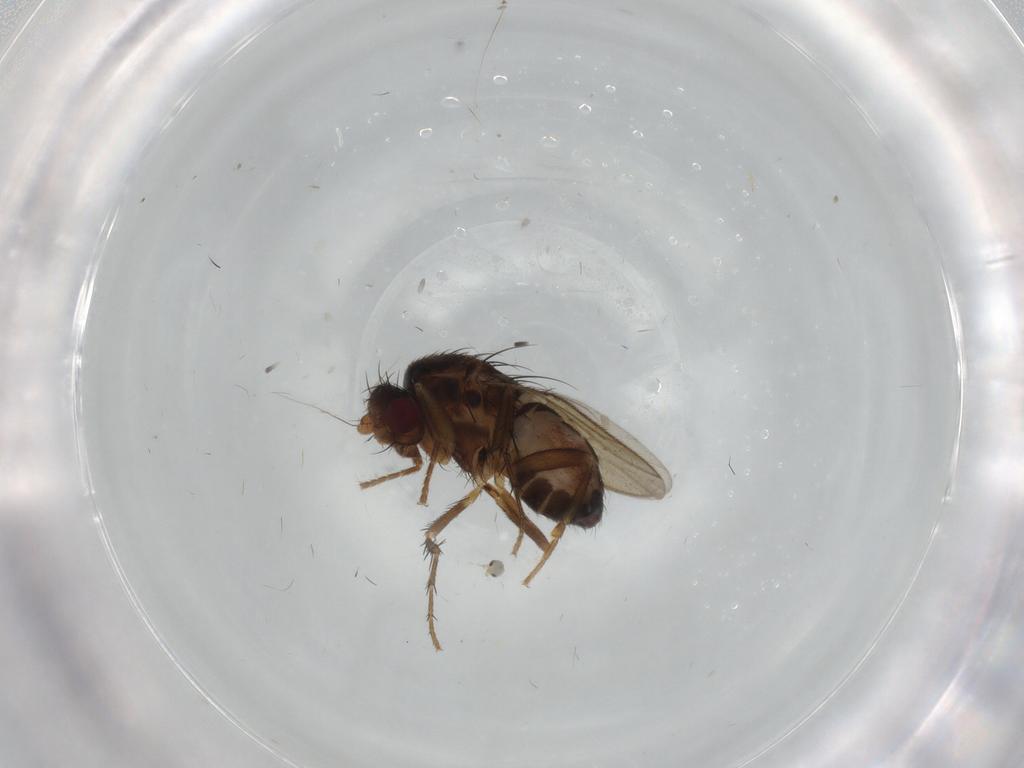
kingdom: Animalia
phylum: Arthropoda
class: Insecta
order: Diptera
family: Sphaeroceridae
